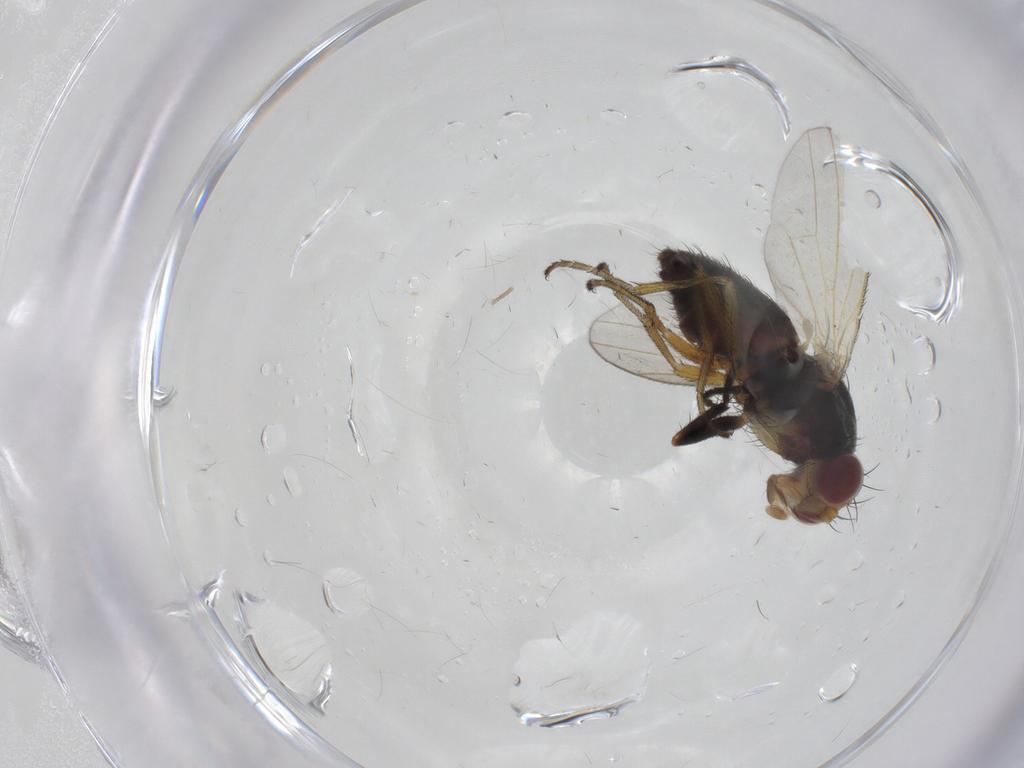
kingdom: Animalia
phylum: Arthropoda
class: Insecta
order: Diptera
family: Heleomyzidae
